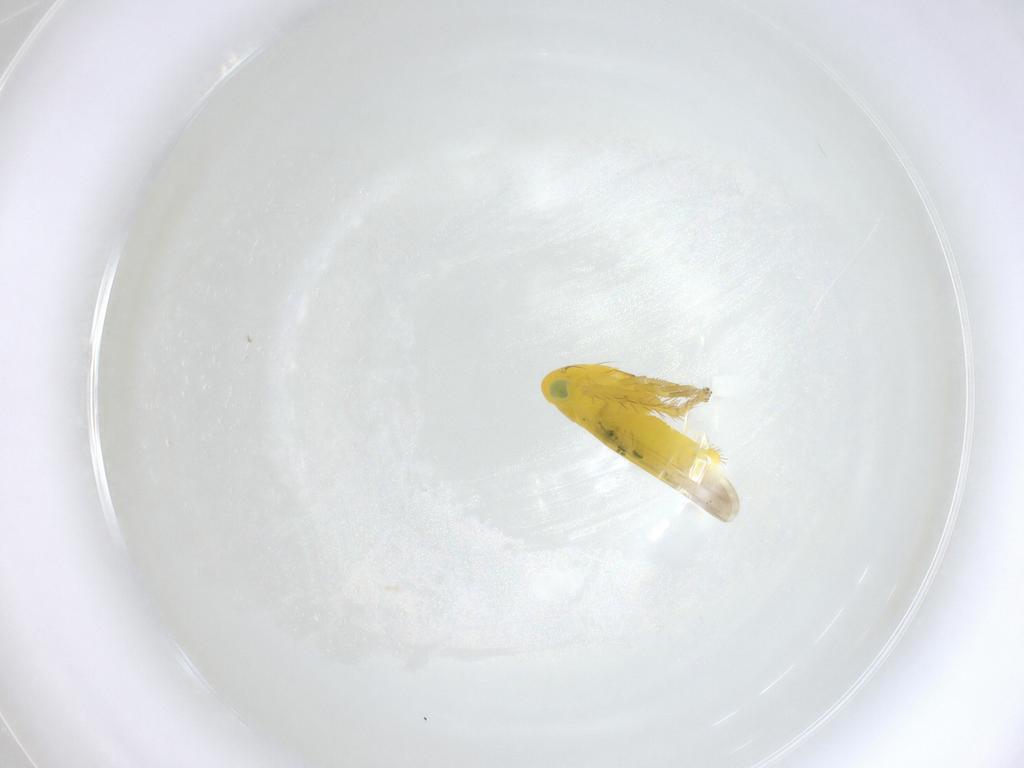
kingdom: Animalia
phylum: Arthropoda
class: Insecta
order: Hemiptera
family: Cicadellidae
